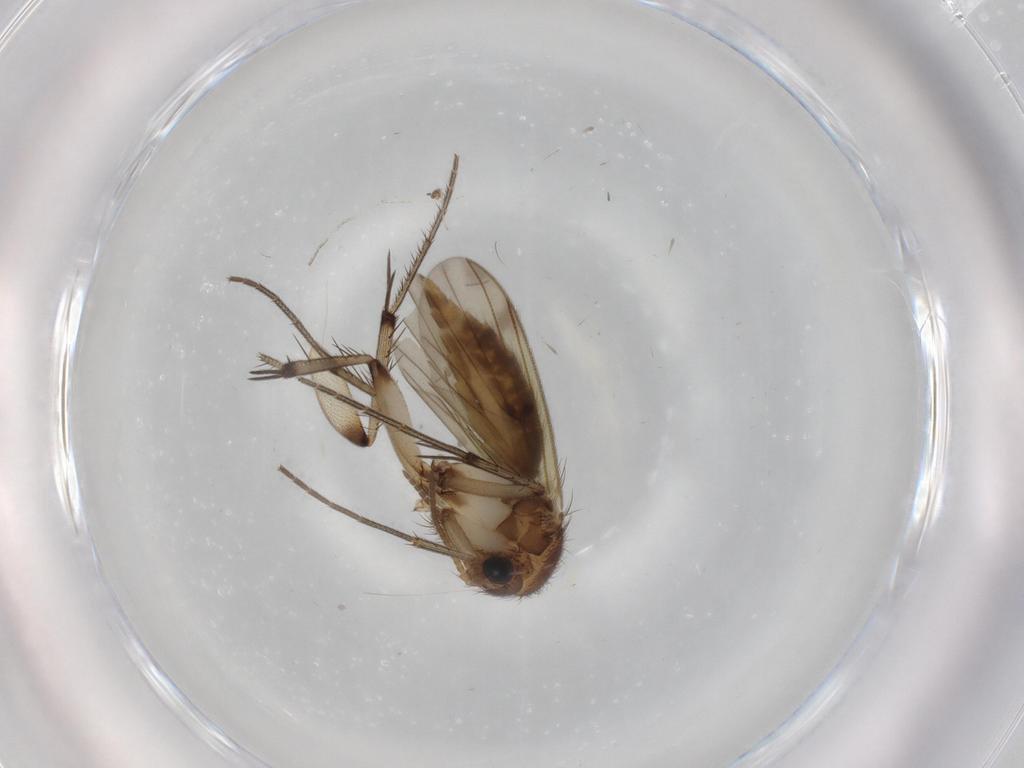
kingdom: Animalia
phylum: Arthropoda
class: Insecta
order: Diptera
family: Mycetophilidae
